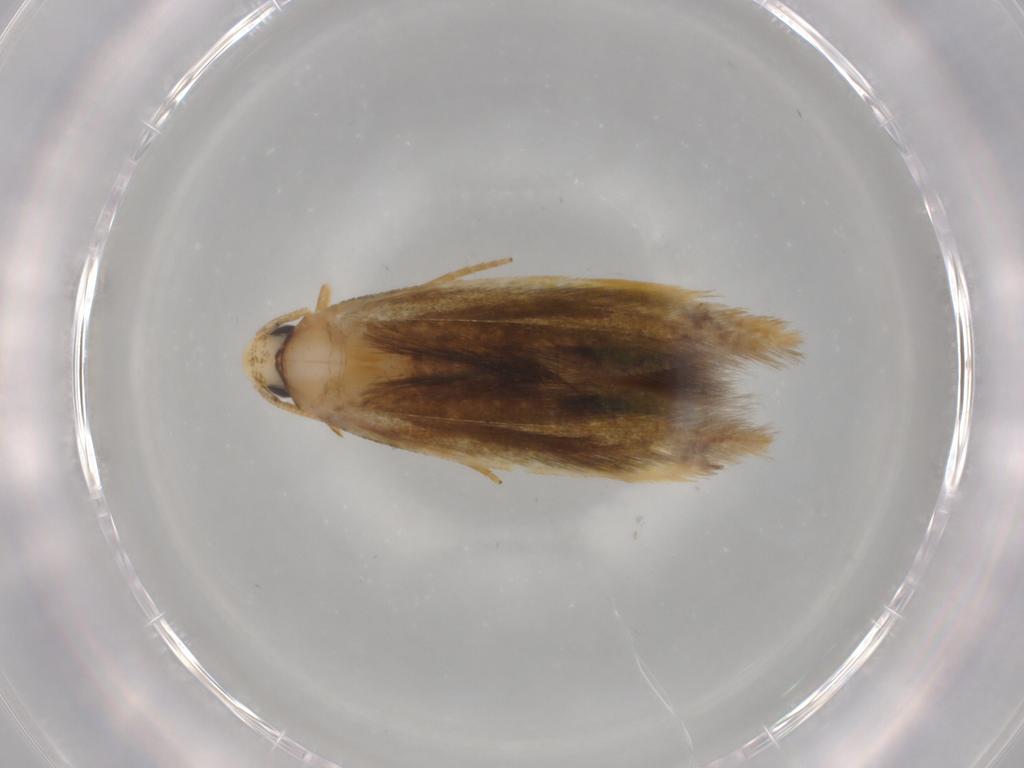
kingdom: Animalia
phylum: Arthropoda
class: Insecta
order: Lepidoptera
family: Tineidae
